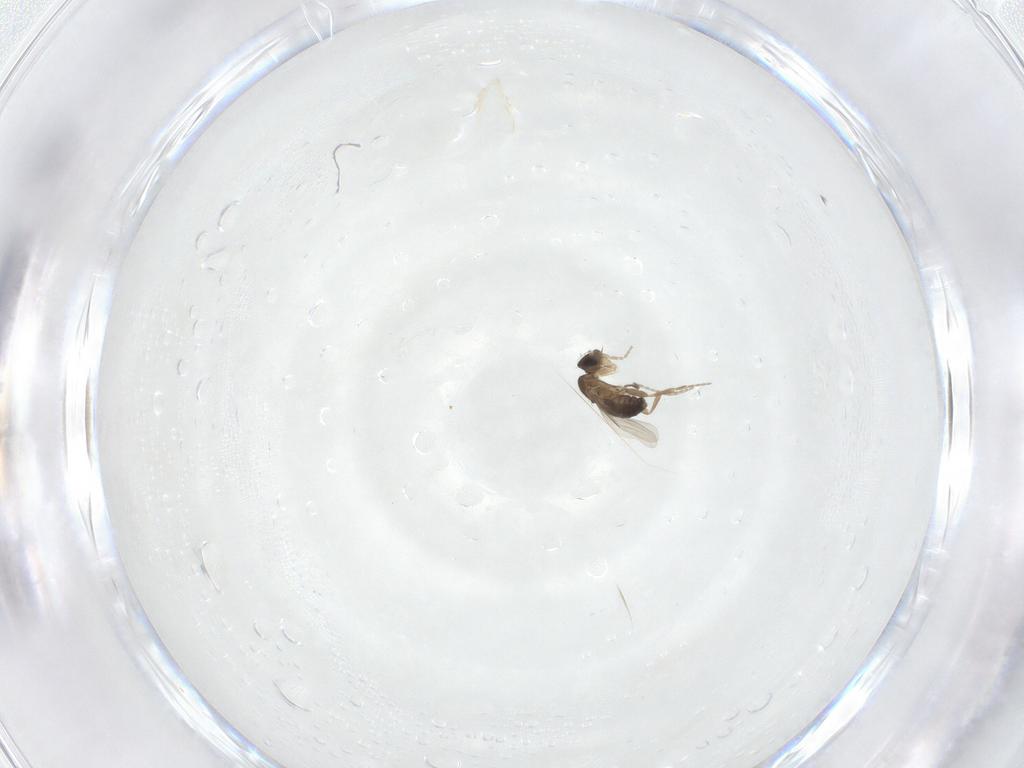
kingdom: Animalia
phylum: Arthropoda
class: Insecta
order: Diptera
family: Phoridae
